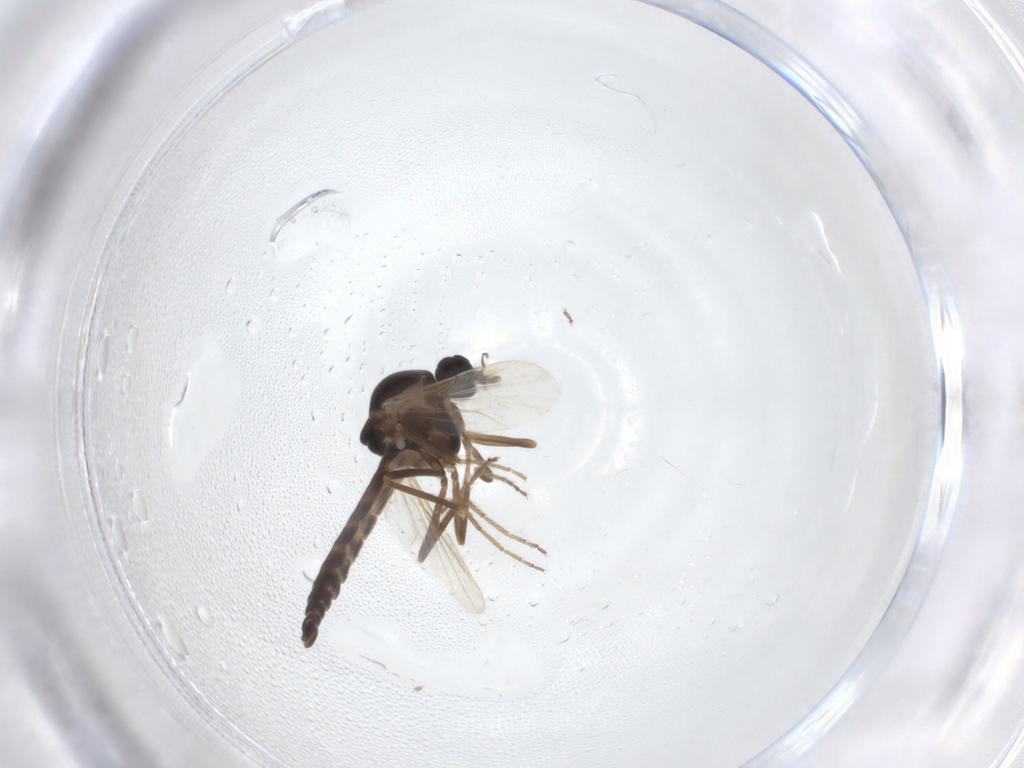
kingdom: Animalia
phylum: Arthropoda
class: Insecta
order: Diptera
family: Ceratopogonidae
